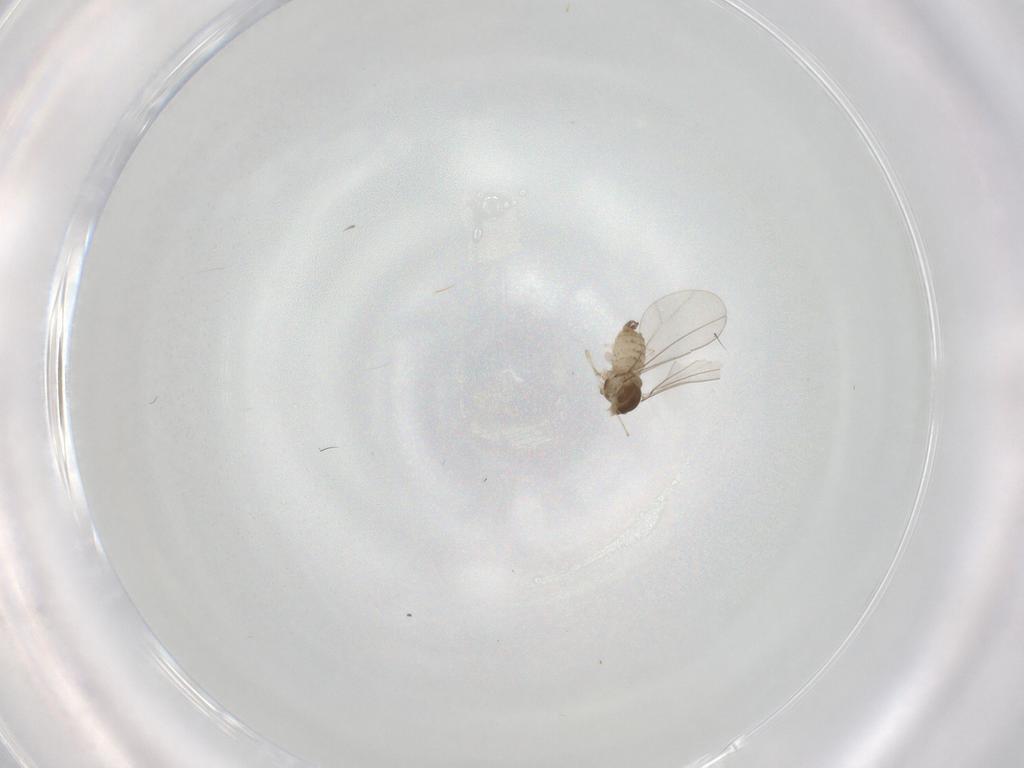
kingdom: Animalia
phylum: Arthropoda
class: Insecta
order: Diptera
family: Cecidomyiidae
